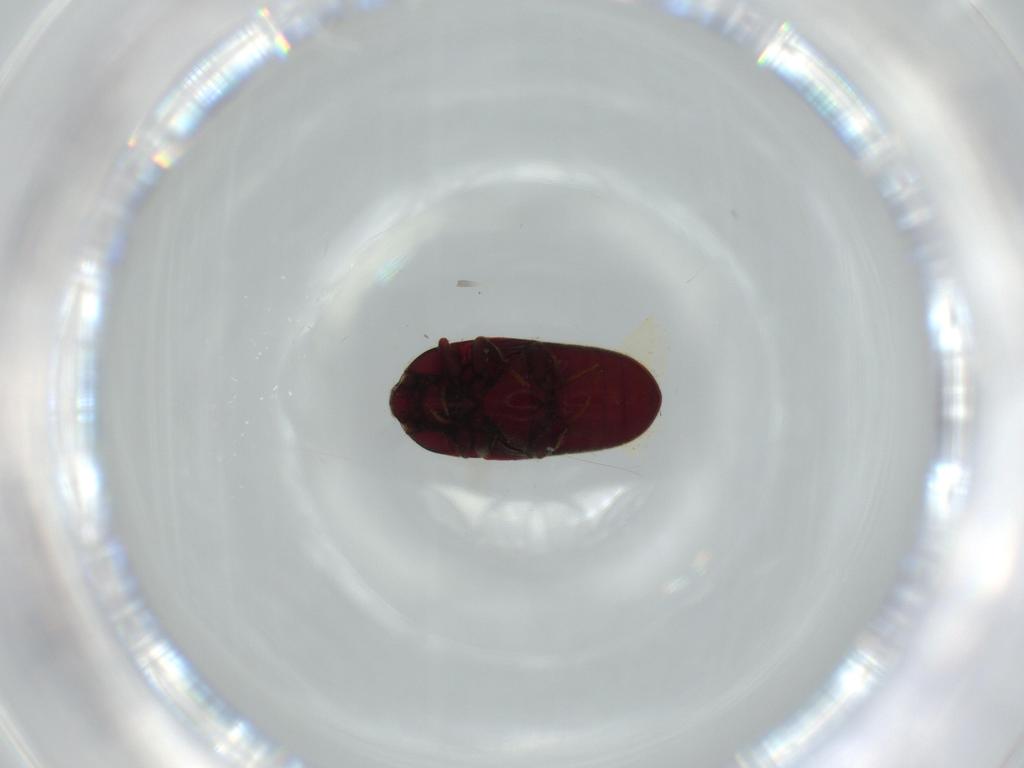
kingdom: Animalia
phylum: Arthropoda
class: Insecta
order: Coleoptera
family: Throscidae
